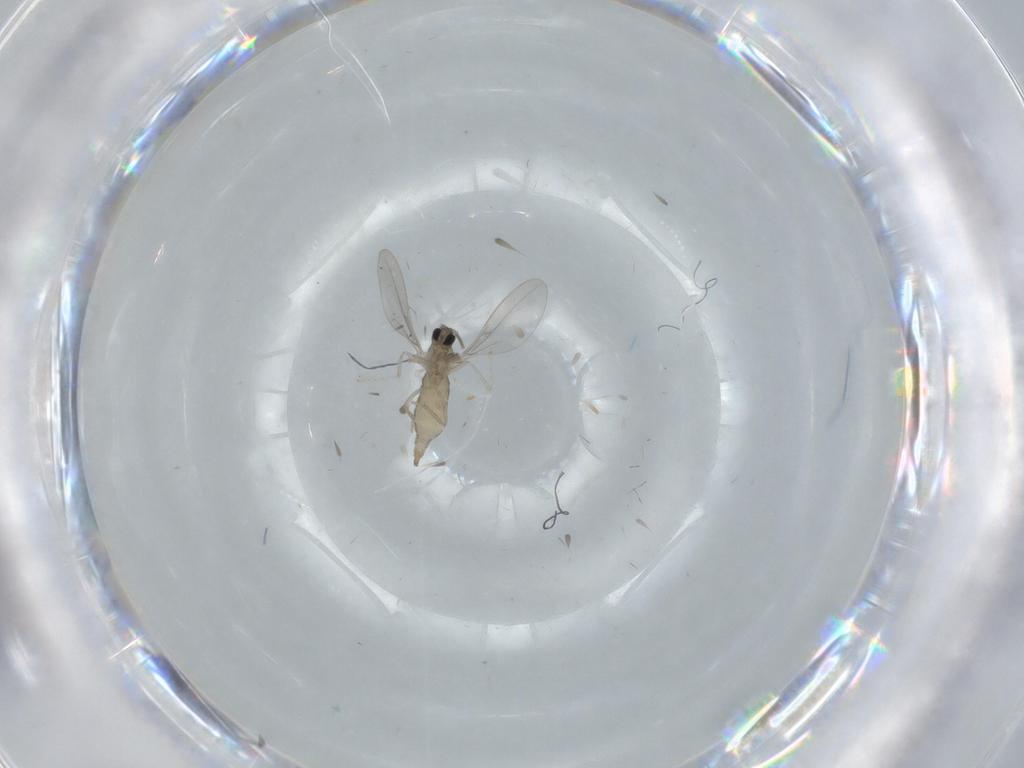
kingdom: Animalia
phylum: Arthropoda
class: Insecta
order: Diptera
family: Cecidomyiidae
